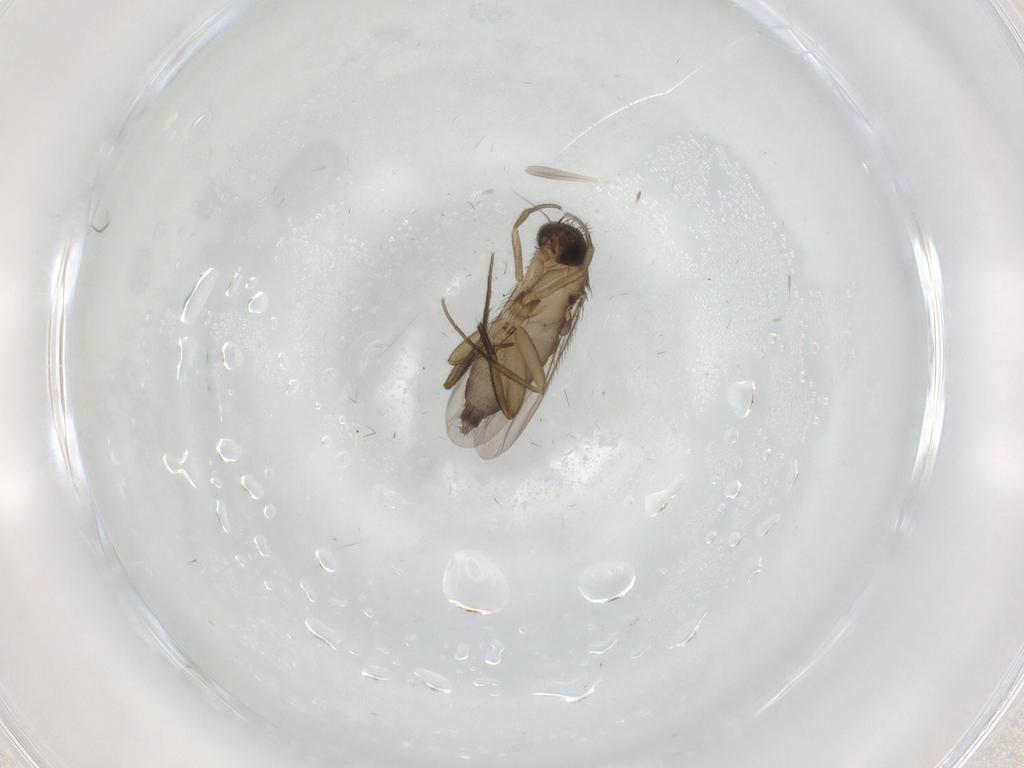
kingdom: Animalia
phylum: Arthropoda
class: Insecta
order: Diptera
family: Phoridae
